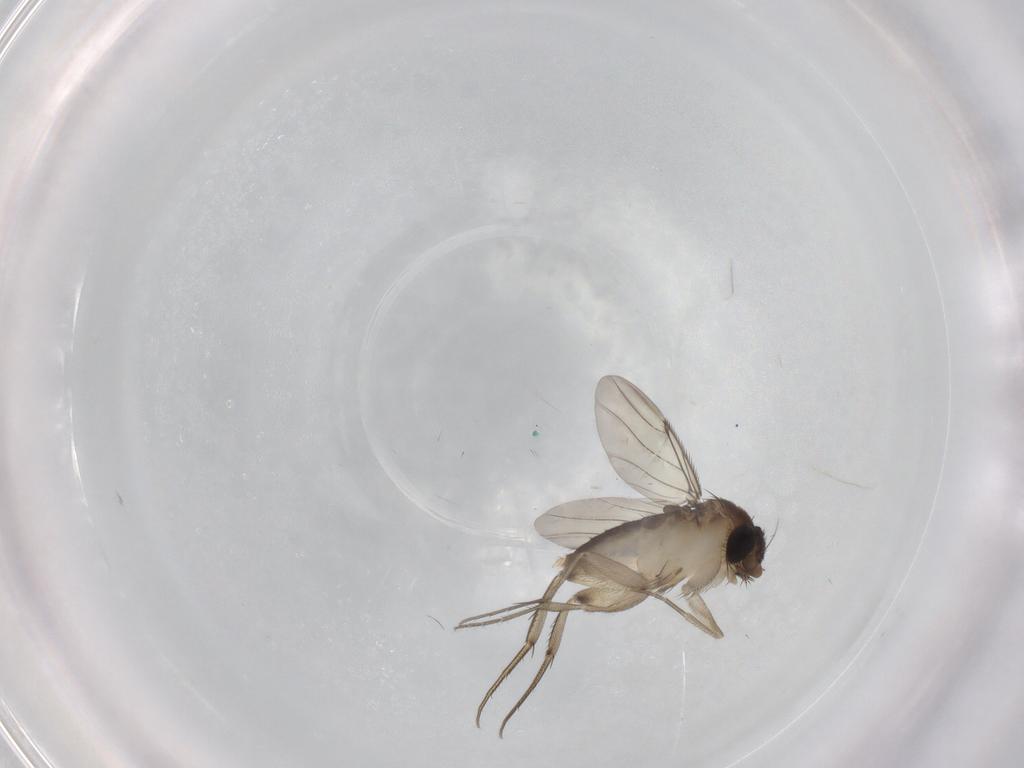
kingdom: Animalia
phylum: Arthropoda
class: Insecta
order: Diptera
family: Phoridae
